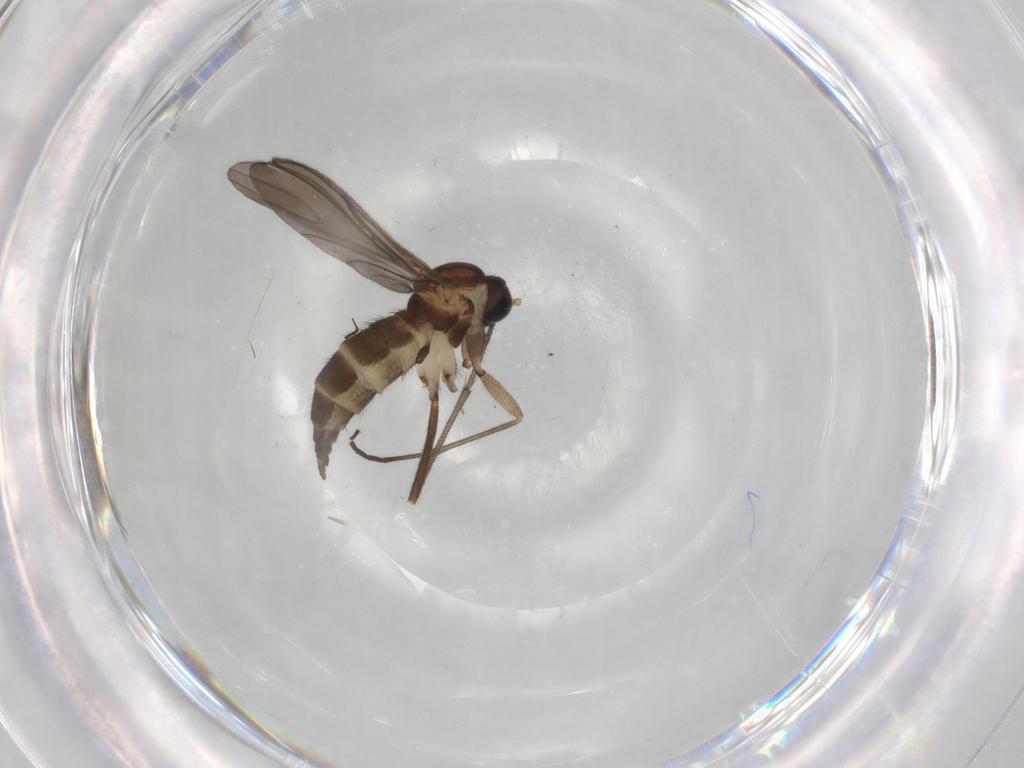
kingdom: Animalia
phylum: Arthropoda
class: Insecta
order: Diptera
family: Sciaridae
